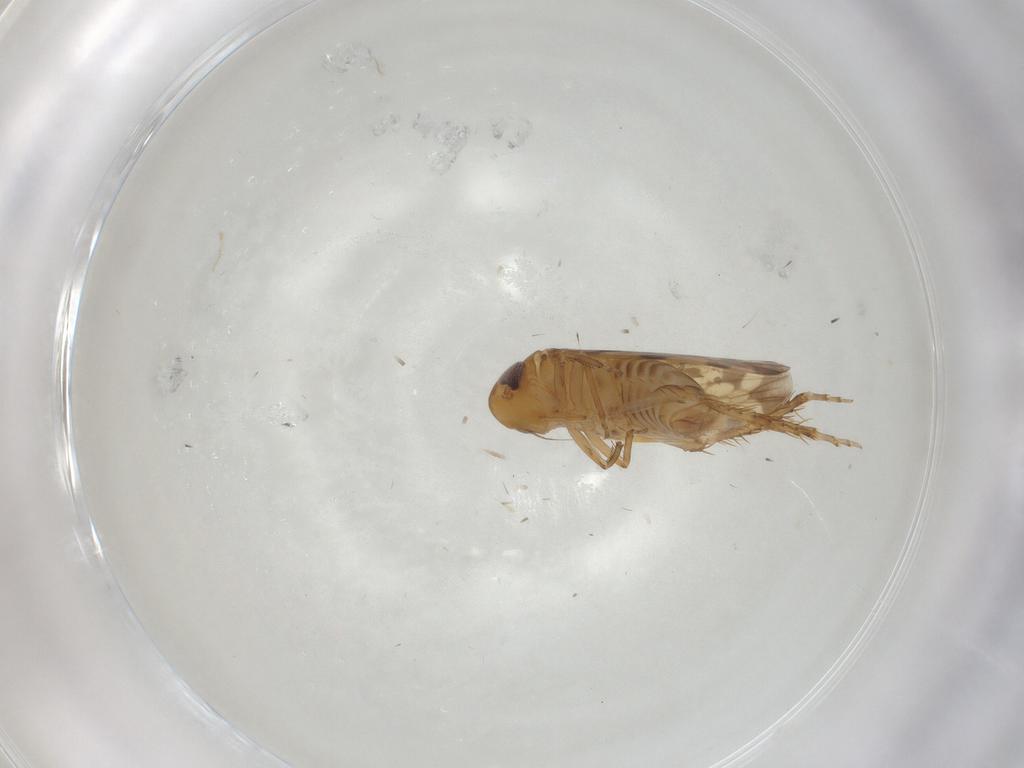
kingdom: Animalia
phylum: Arthropoda
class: Insecta
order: Hemiptera
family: Cicadellidae
